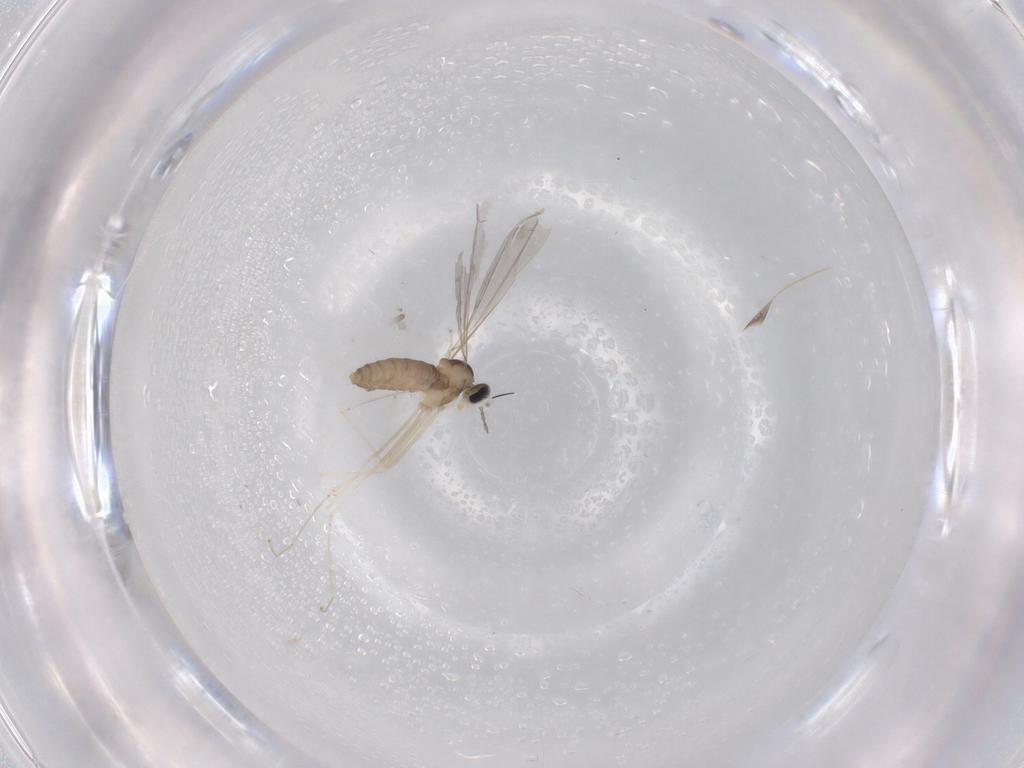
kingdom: Animalia
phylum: Arthropoda
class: Insecta
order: Diptera
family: Cecidomyiidae
